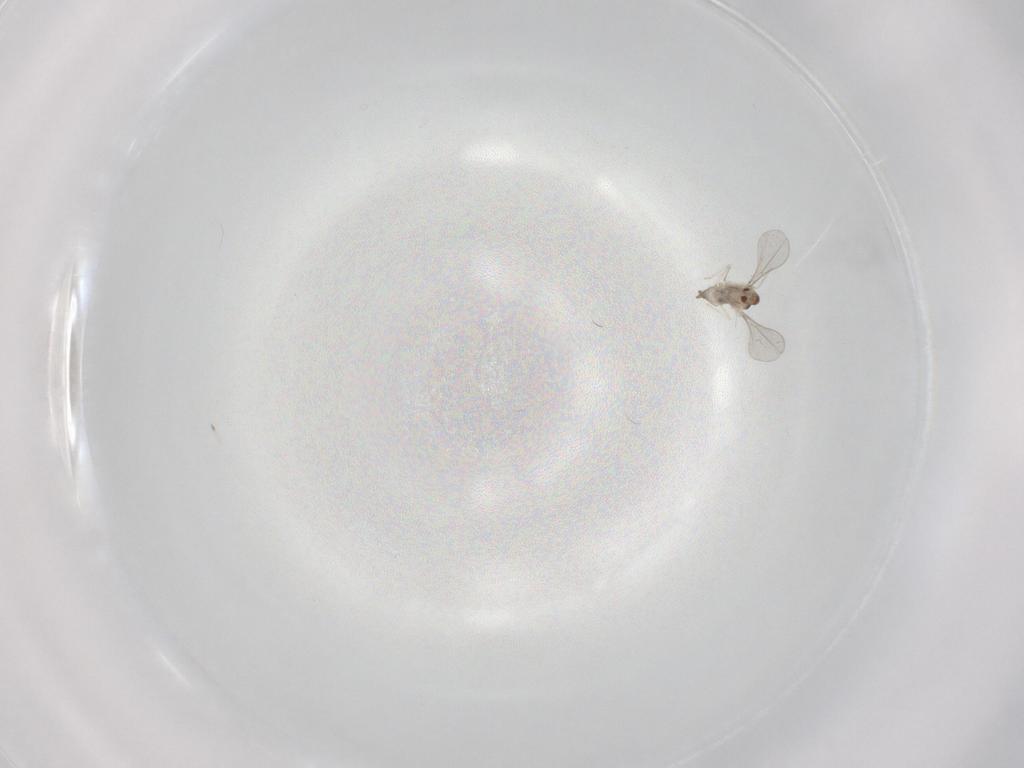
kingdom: Animalia
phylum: Arthropoda
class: Insecta
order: Diptera
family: Cecidomyiidae
